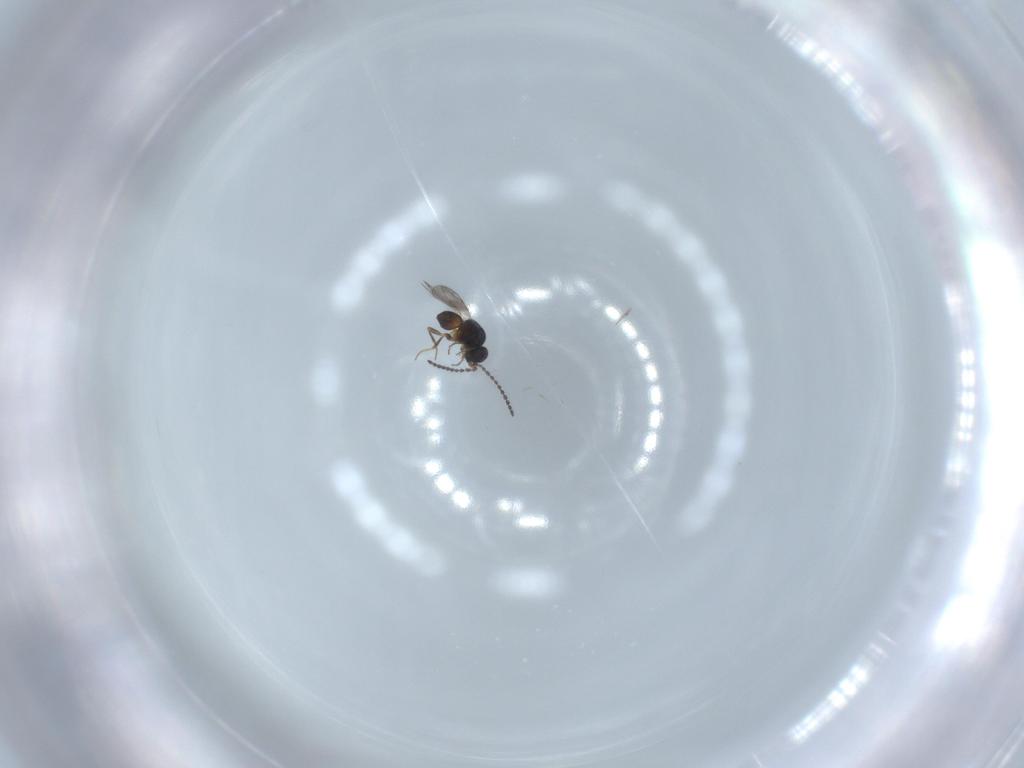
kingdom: Animalia
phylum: Arthropoda
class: Insecta
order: Hymenoptera
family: Ceraphronidae
